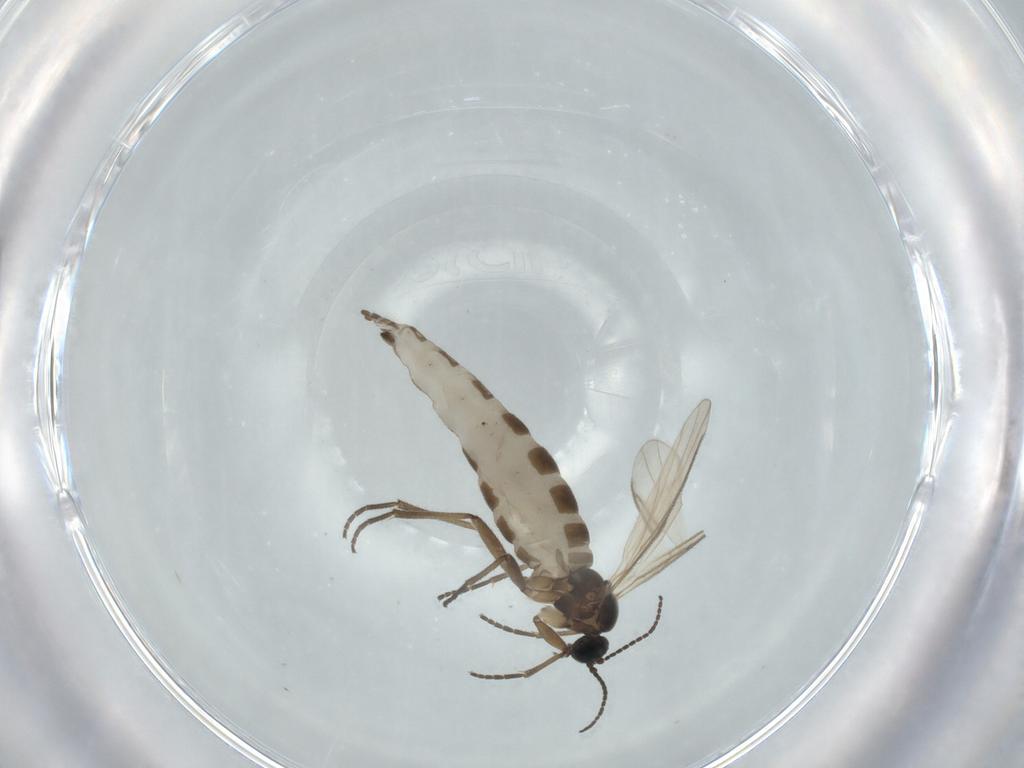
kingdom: Animalia
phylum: Arthropoda
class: Insecta
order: Diptera
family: Sciaridae
